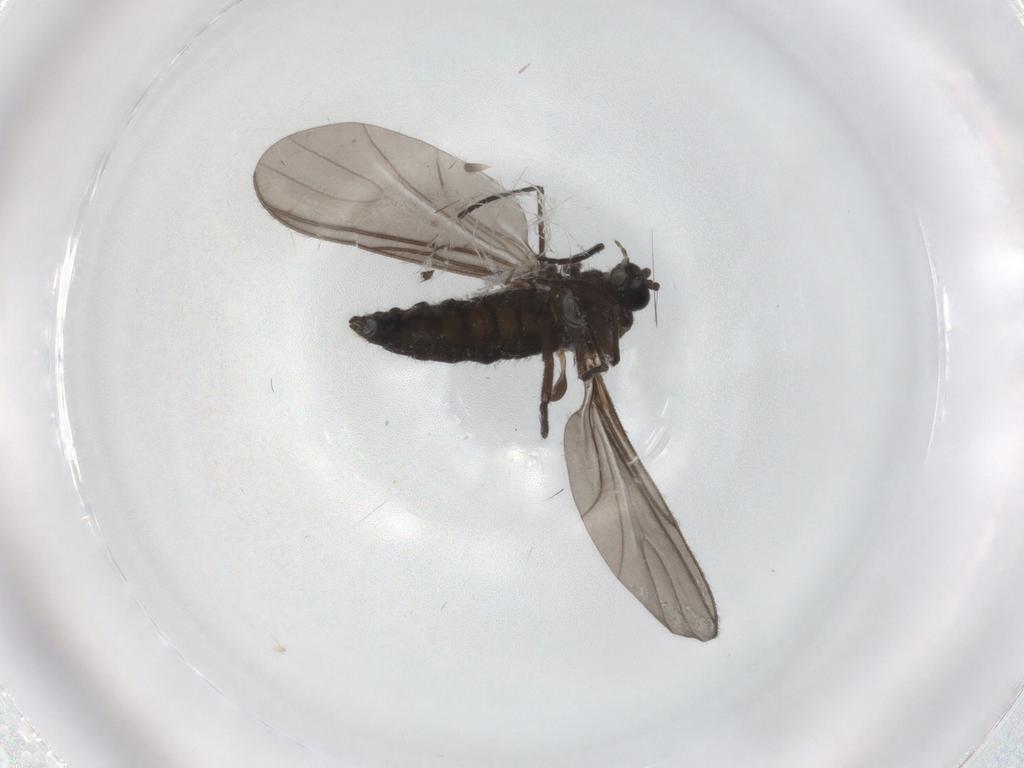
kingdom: Animalia
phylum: Arthropoda
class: Insecta
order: Diptera
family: Sciaridae
